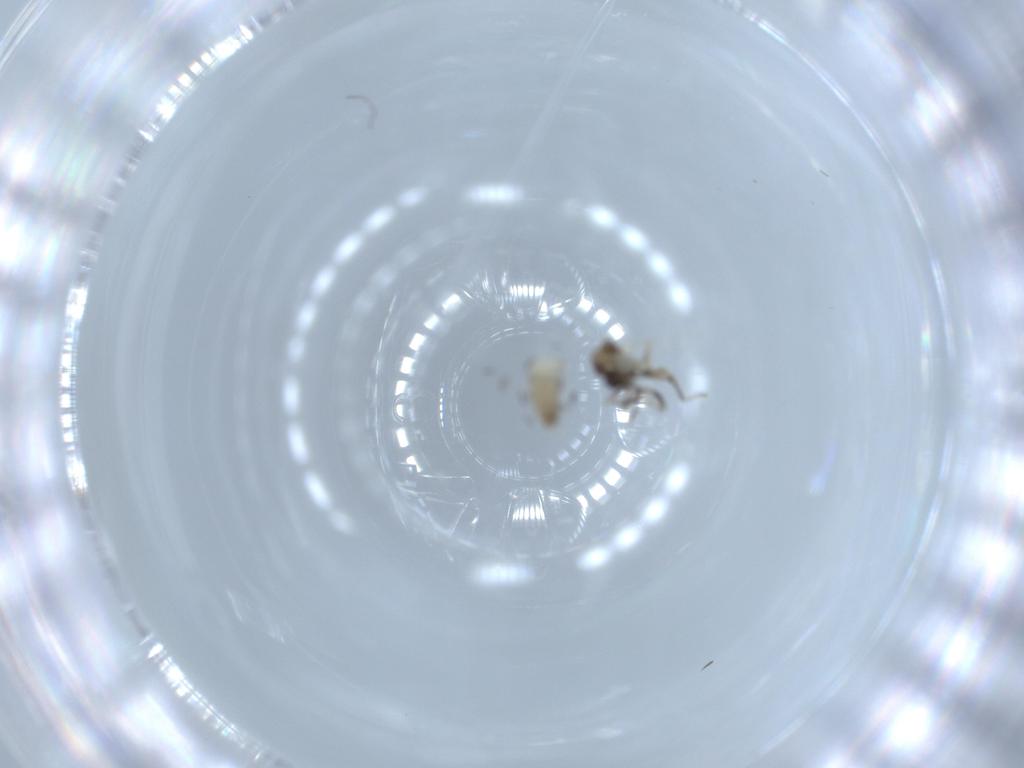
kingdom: Animalia
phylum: Arthropoda
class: Insecta
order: Diptera
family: Ceratopogonidae
